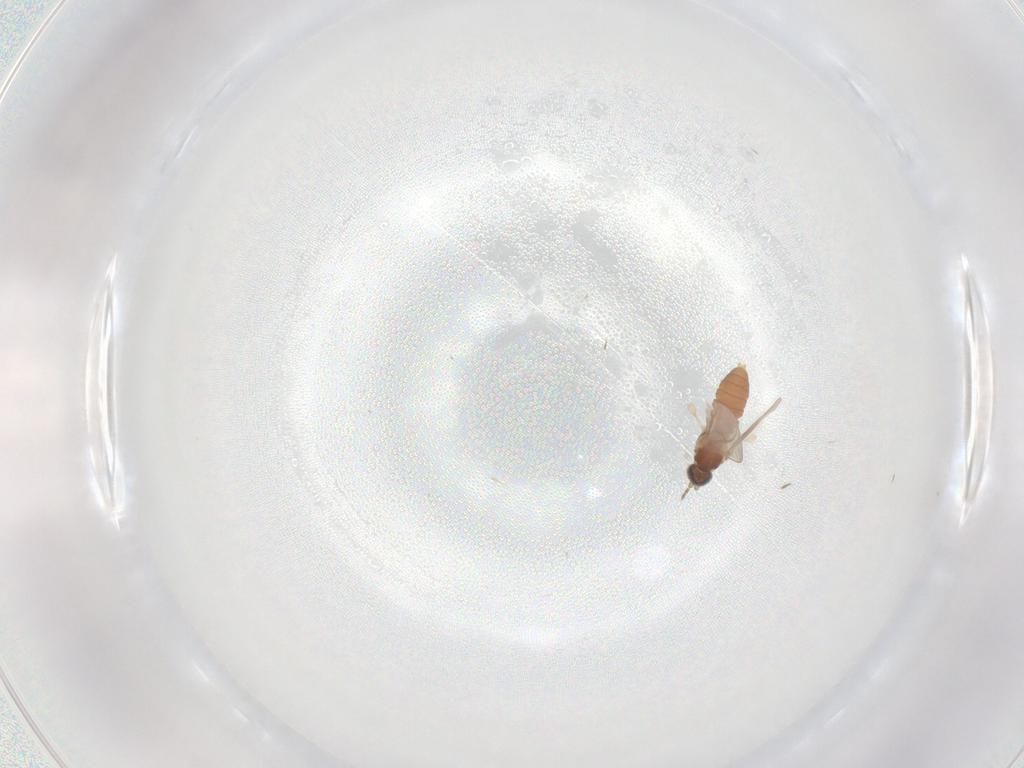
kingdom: Animalia
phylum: Arthropoda
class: Insecta
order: Diptera
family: Cecidomyiidae
